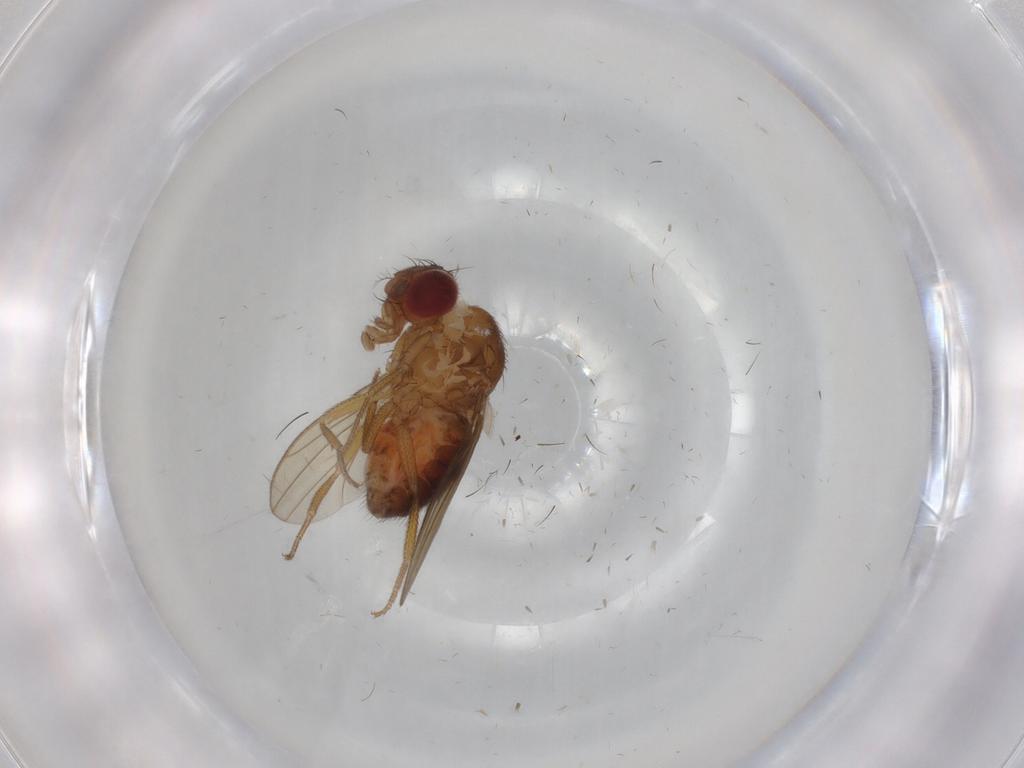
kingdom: Animalia
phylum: Arthropoda
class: Insecta
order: Diptera
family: Drosophilidae
